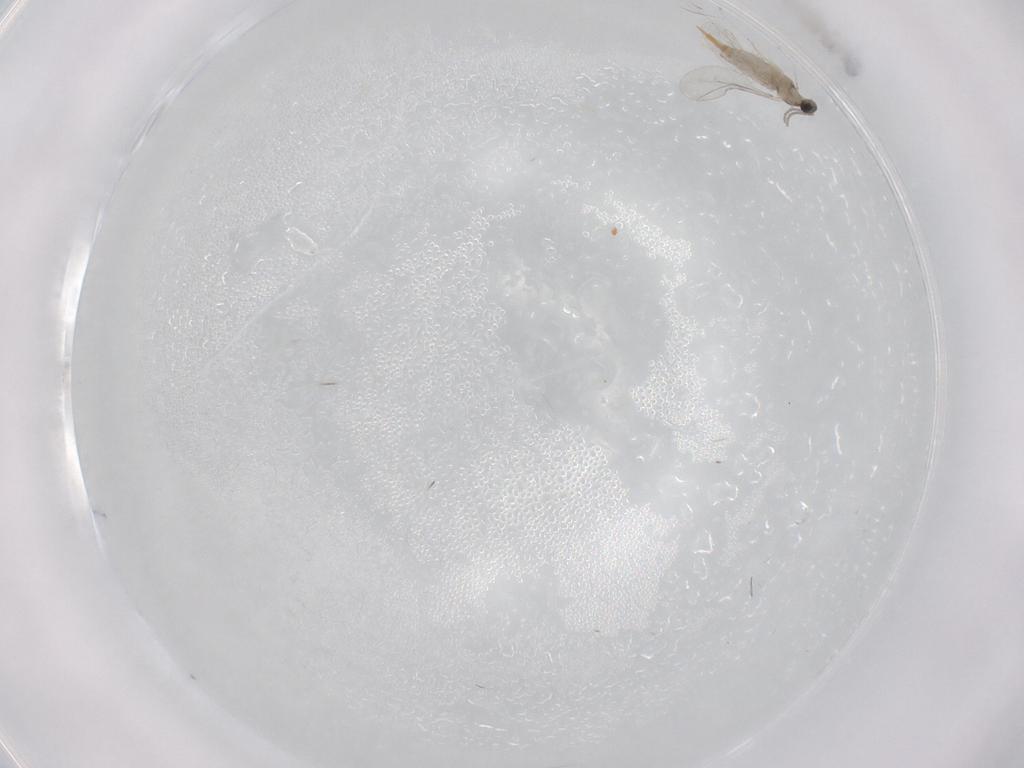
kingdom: Animalia
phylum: Arthropoda
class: Insecta
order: Diptera
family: Cecidomyiidae
